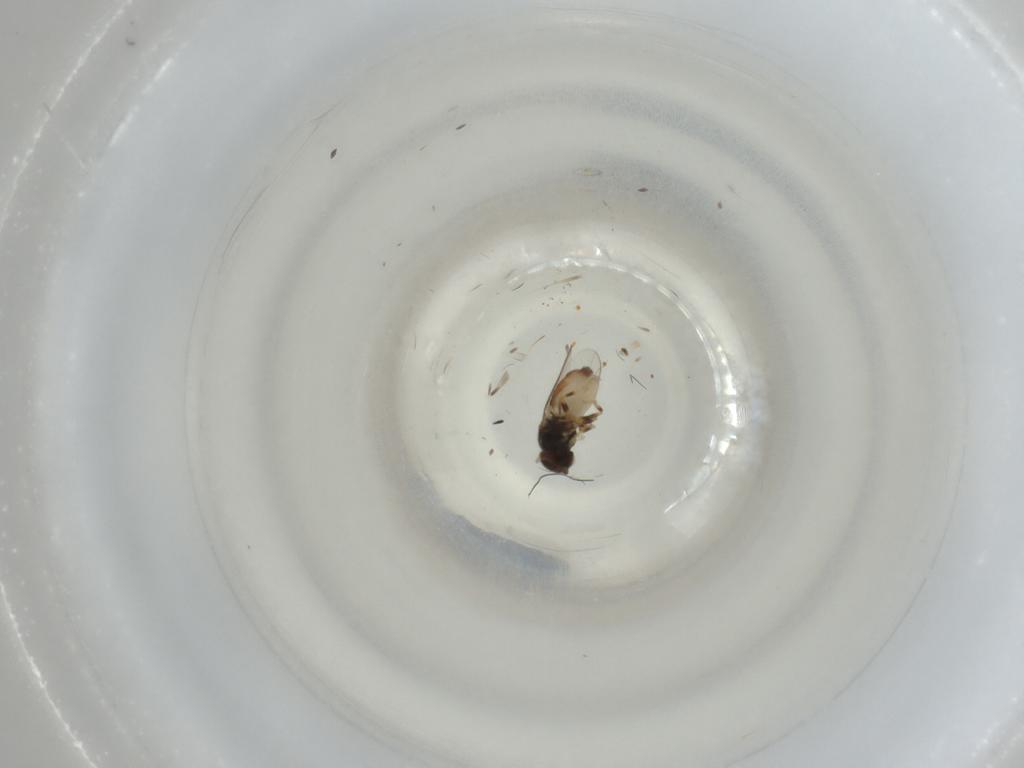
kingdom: Animalia
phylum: Arthropoda
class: Insecta
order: Diptera
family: Chloropidae
